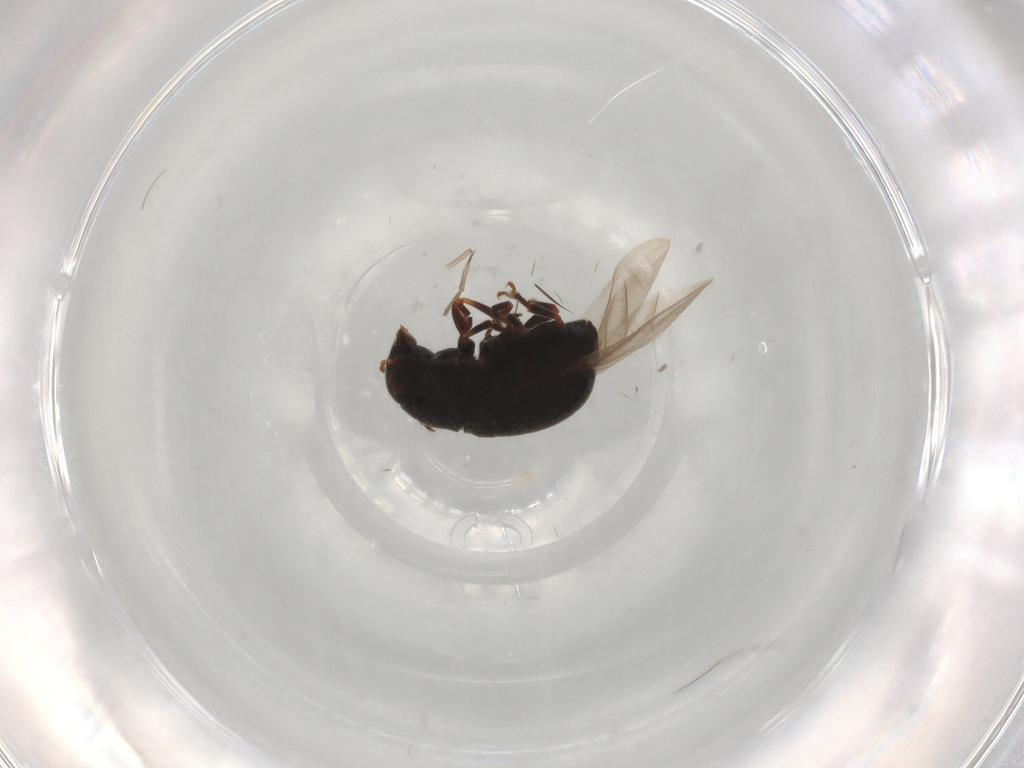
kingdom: Animalia
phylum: Arthropoda
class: Insecta
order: Coleoptera
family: Anthribidae
